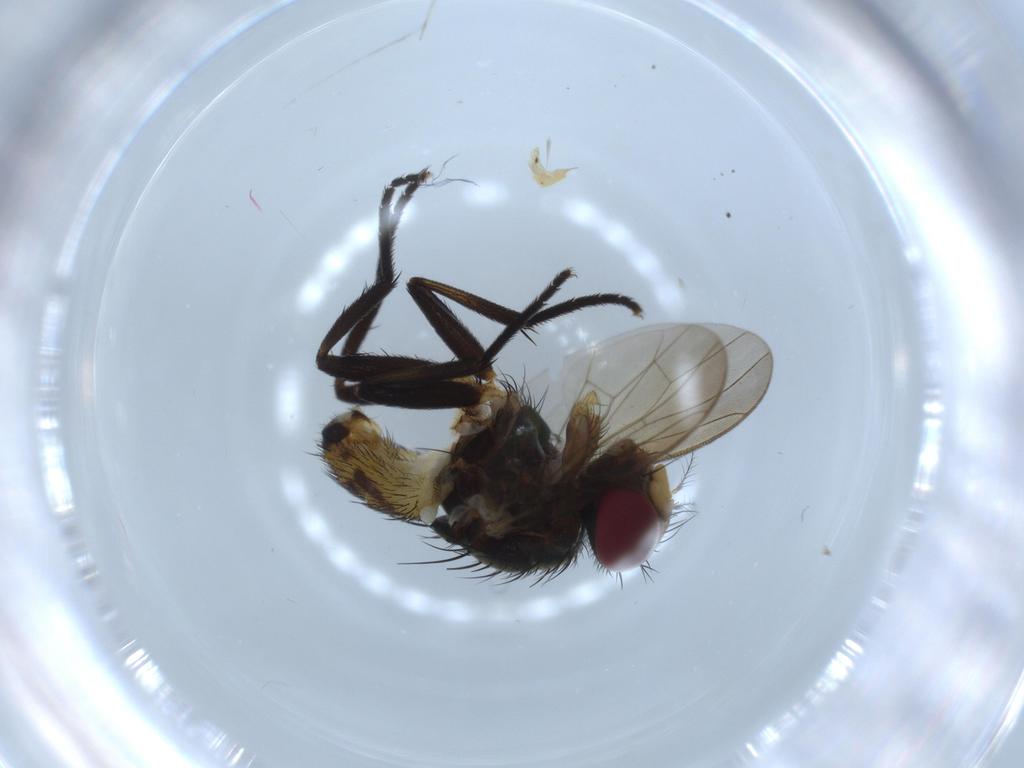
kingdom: Animalia
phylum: Arthropoda
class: Insecta
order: Diptera
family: Anthomyiidae
